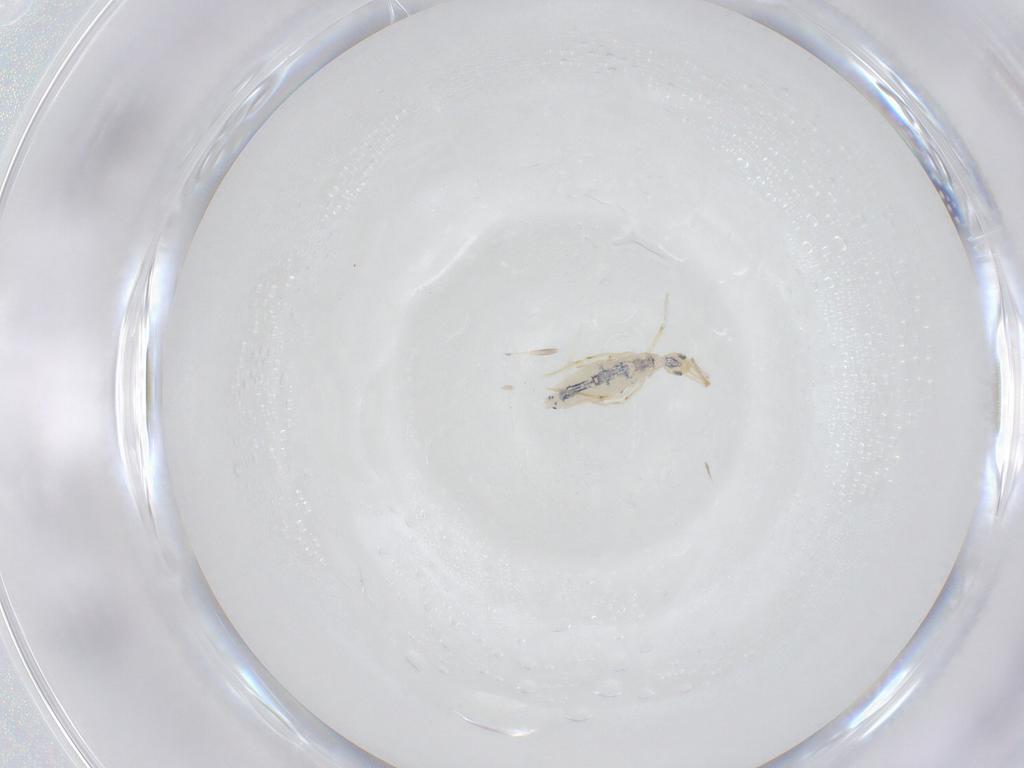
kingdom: Animalia
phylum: Arthropoda
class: Collembola
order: Entomobryomorpha
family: Entomobryidae
